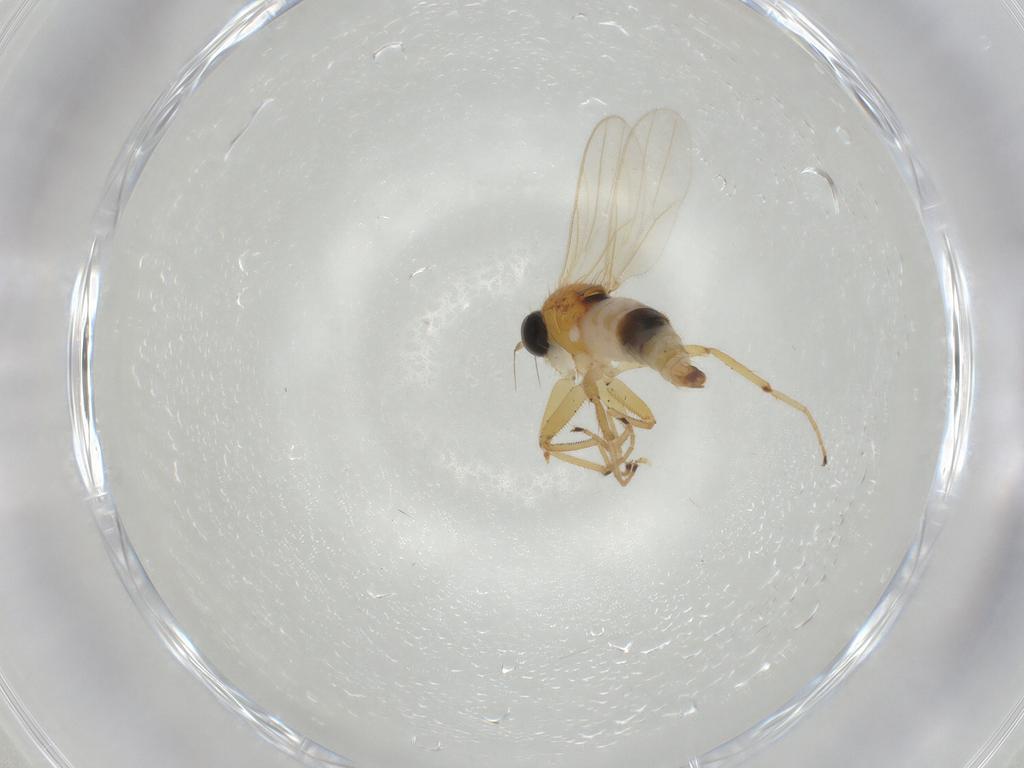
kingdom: Animalia
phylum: Arthropoda
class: Insecta
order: Diptera
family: Hybotidae
